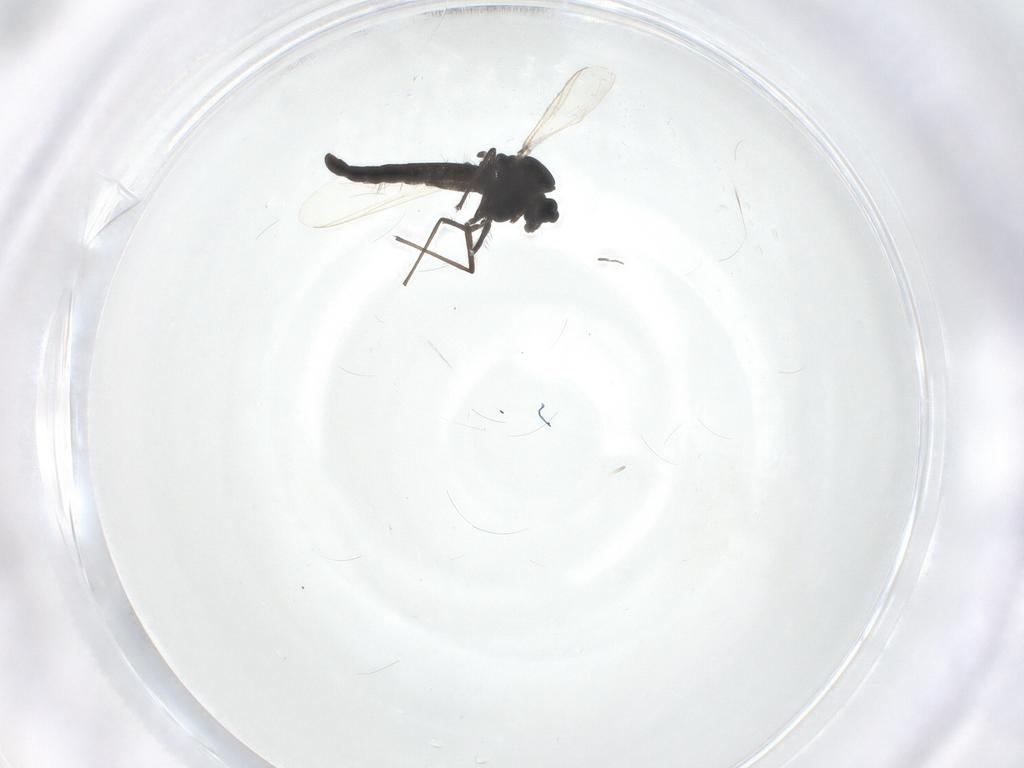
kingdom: Animalia
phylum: Arthropoda
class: Insecta
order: Diptera
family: Chironomidae
